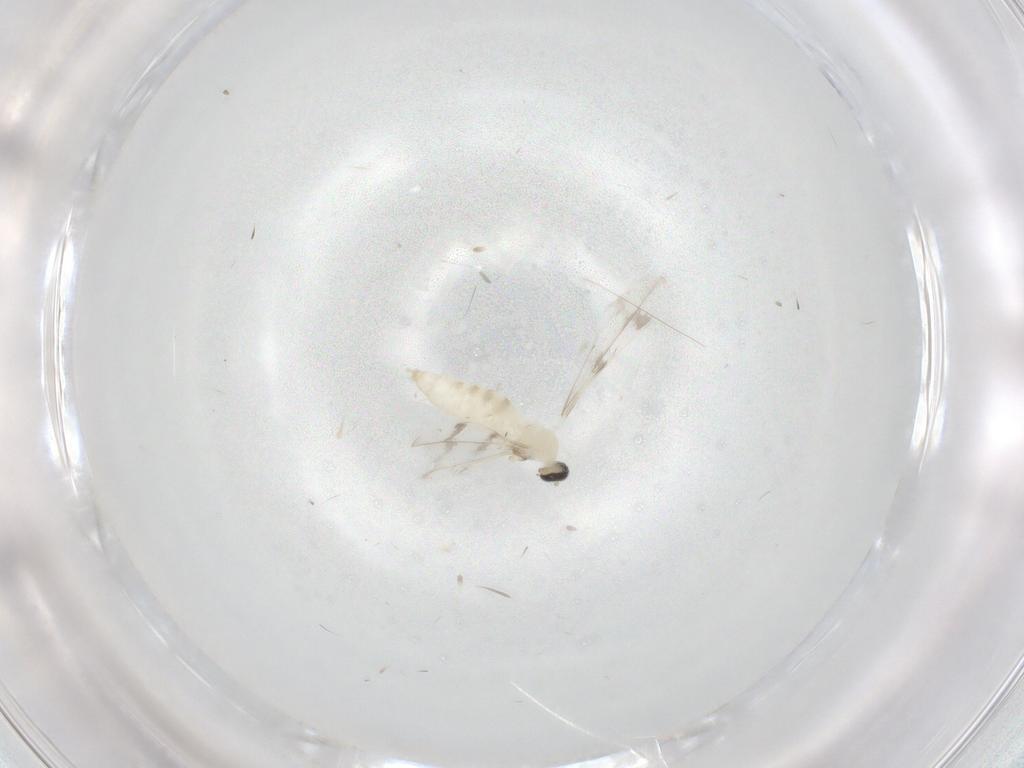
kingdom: Animalia
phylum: Arthropoda
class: Insecta
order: Diptera
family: Cecidomyiidae
